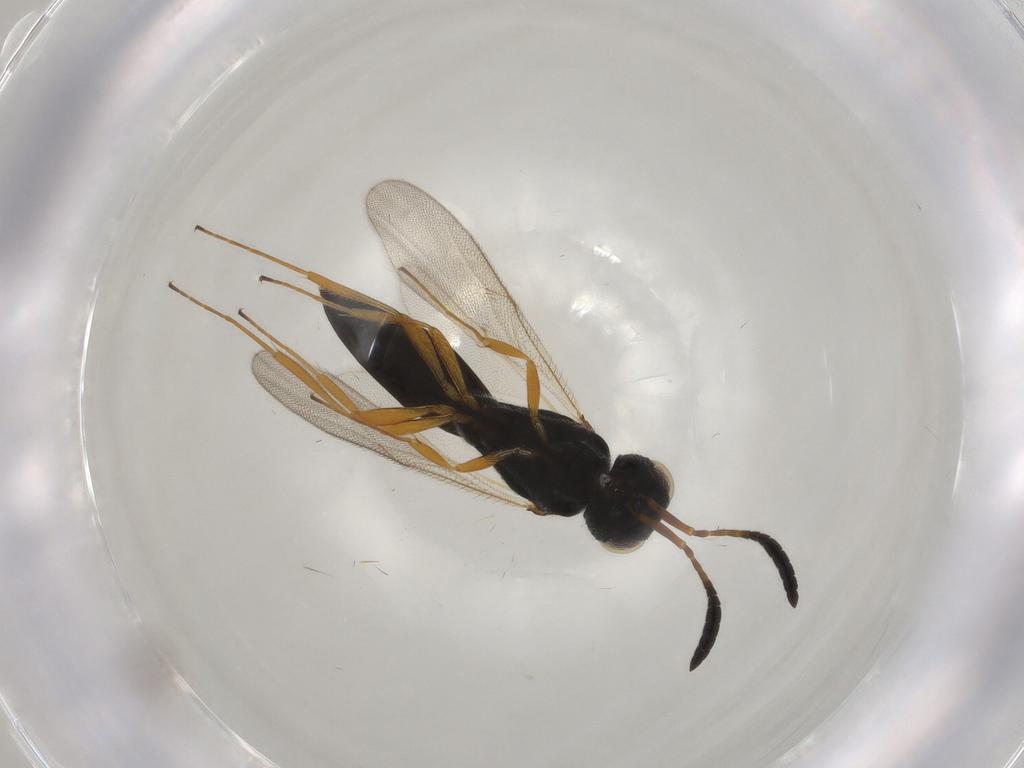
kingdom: Animalia
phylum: Arthropoda
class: Insecta
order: Hymenoptera
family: Scelionidae
